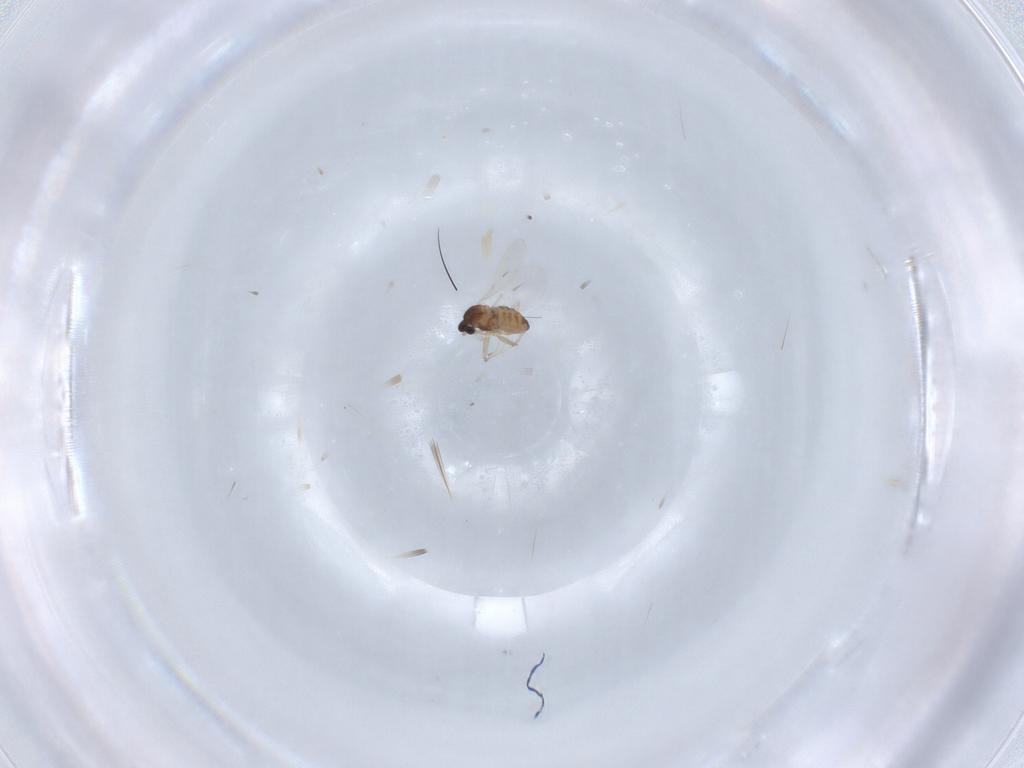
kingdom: Animalia
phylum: Arthropoda
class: Insecta
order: Diptera
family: Cecidomyiidae
